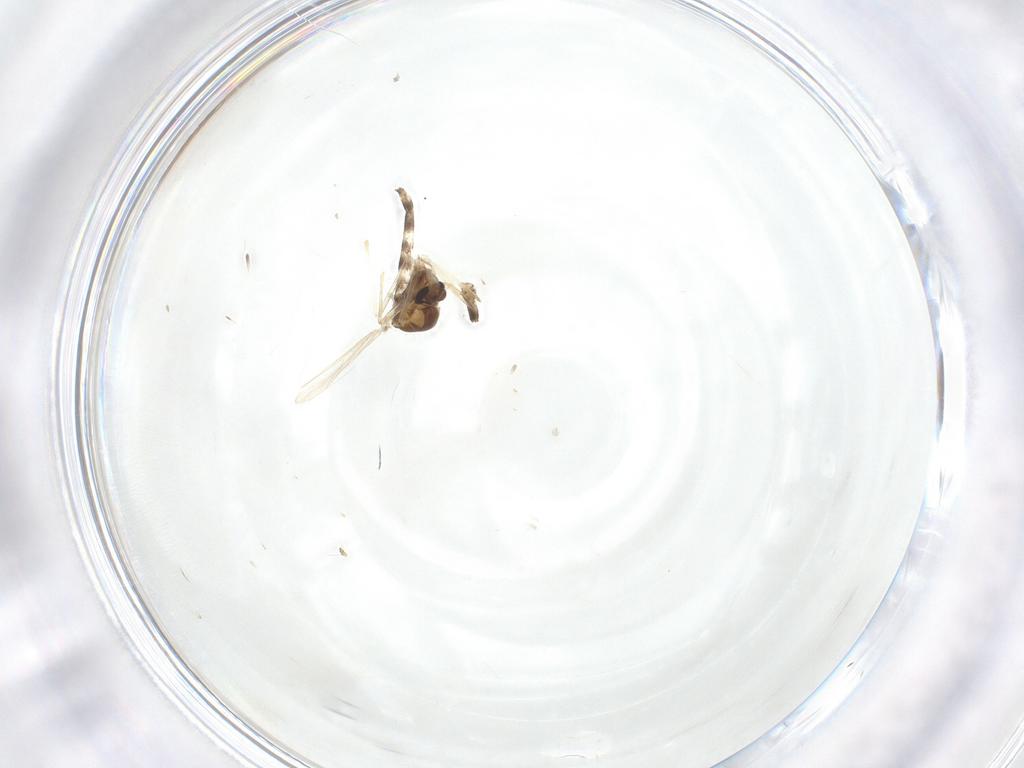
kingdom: Animalia
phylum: Arthropoda
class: Insecta
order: Diptera
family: Chironomidae
